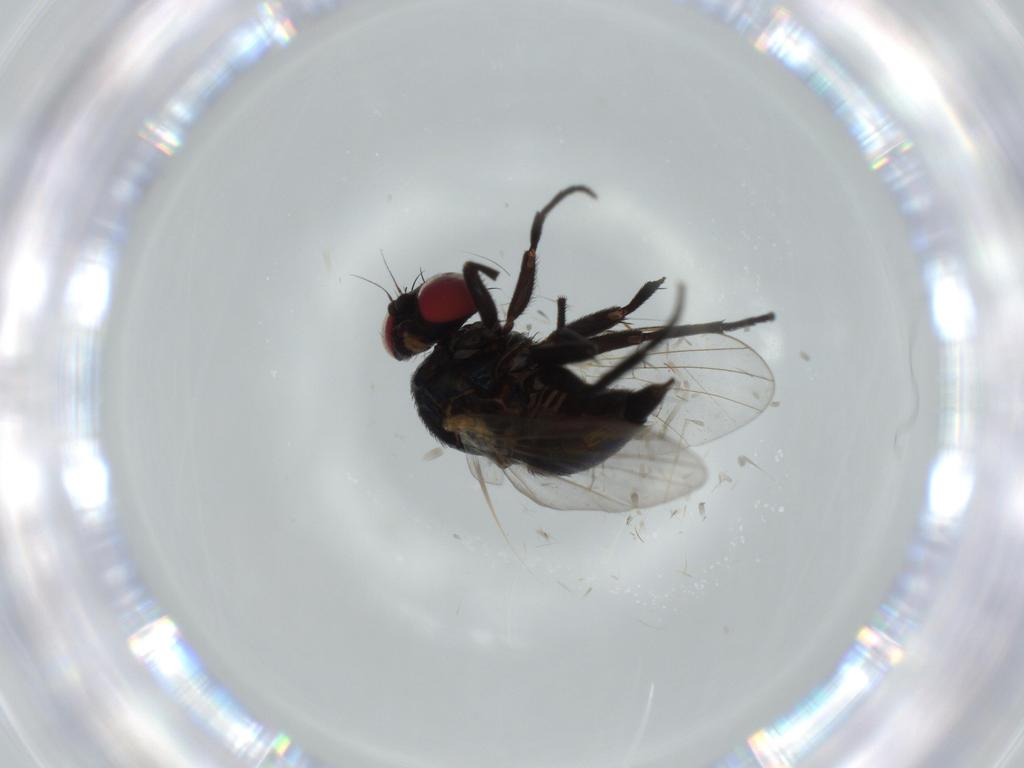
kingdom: Animalia
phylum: Arthropoda
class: Insecta
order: Diptera
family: Agromyzidae
